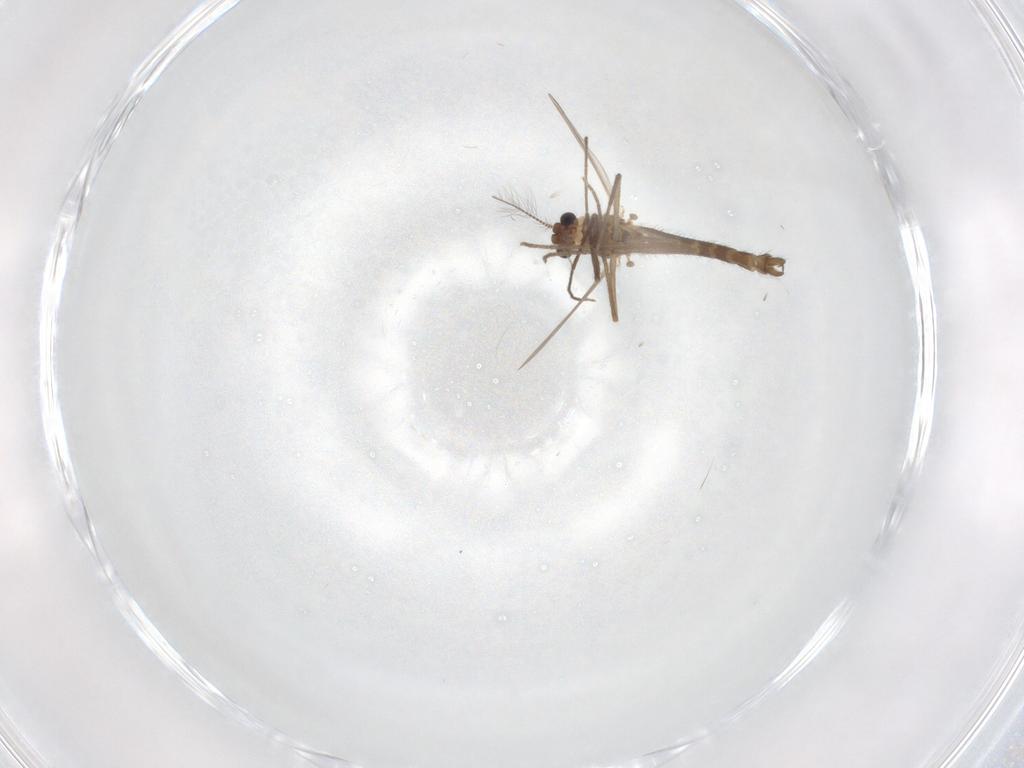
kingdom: Animalia
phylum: Arthropoda
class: Insecta
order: Diptera
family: Chironomidae
